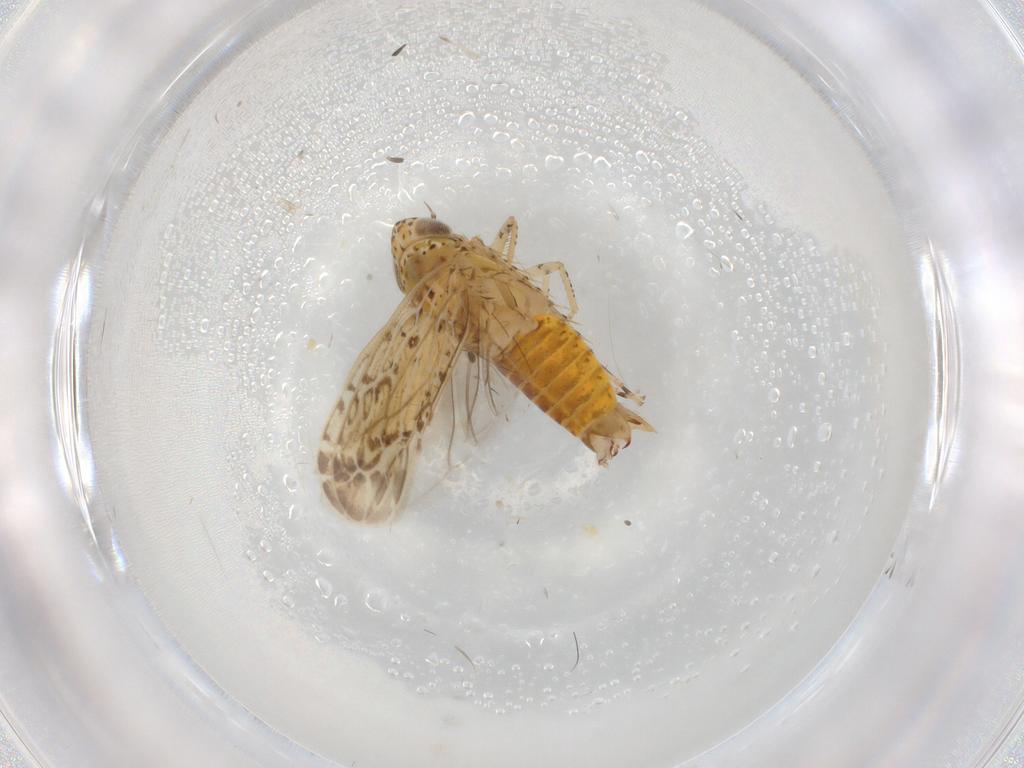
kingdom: Animalia
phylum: Arthropoda
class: Insecta
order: Hemiptera
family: Cicadellidae
